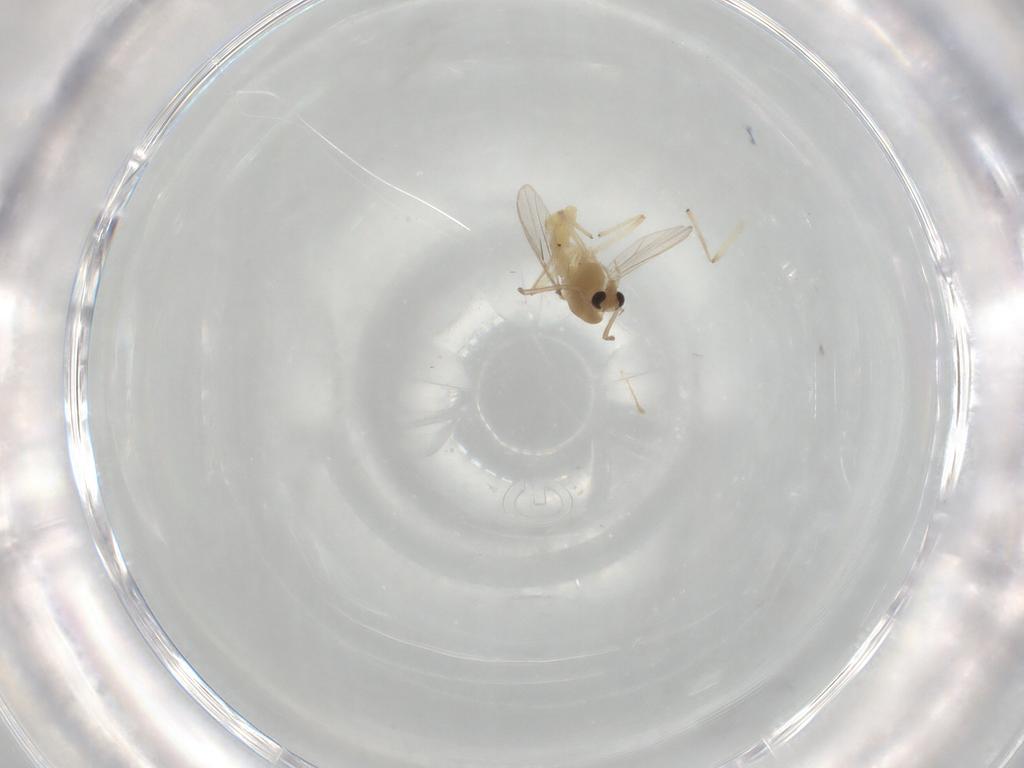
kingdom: Animalia
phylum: Arthropoda
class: Insecta
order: Diptera
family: Chironomidae
